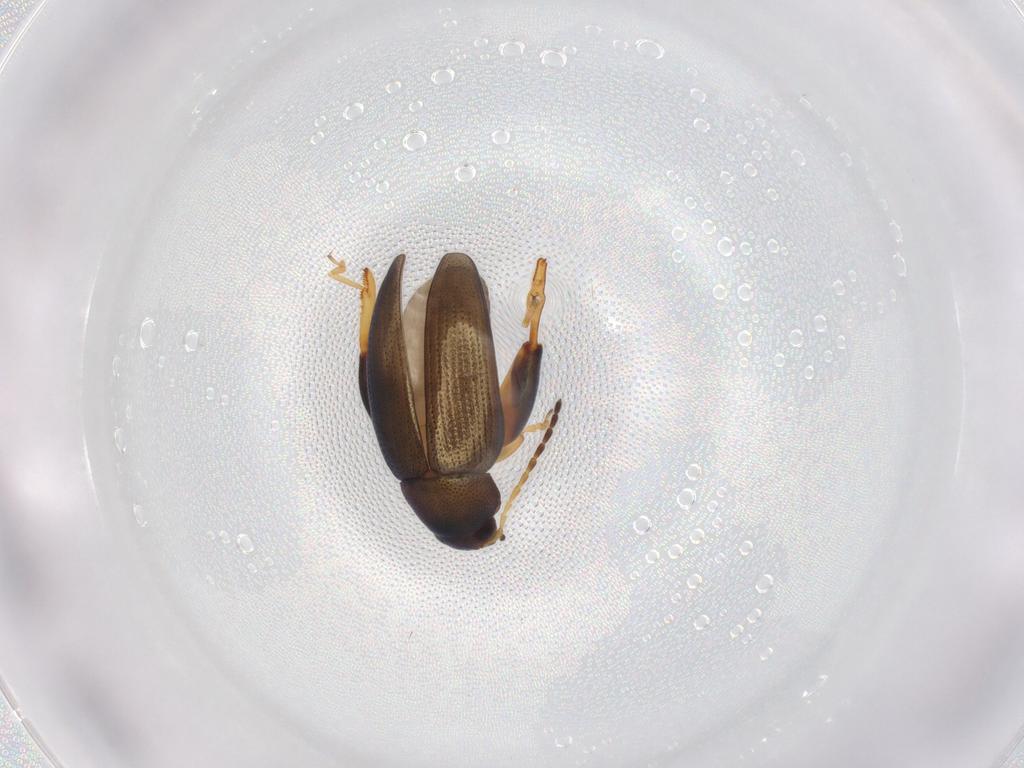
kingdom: Animalia
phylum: Arthropoda
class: Insecta
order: Coleoptera
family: Chrysomelidae
